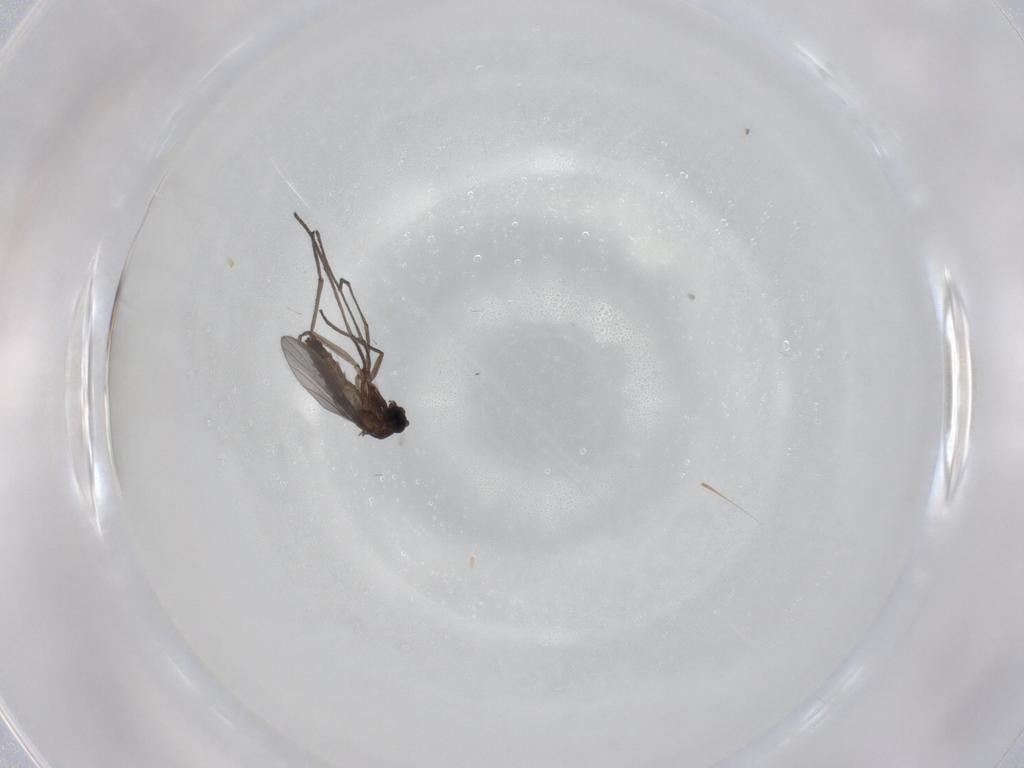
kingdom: Animalia
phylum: Arthropoda
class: Insecta
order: Diptera
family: Sciaridae
